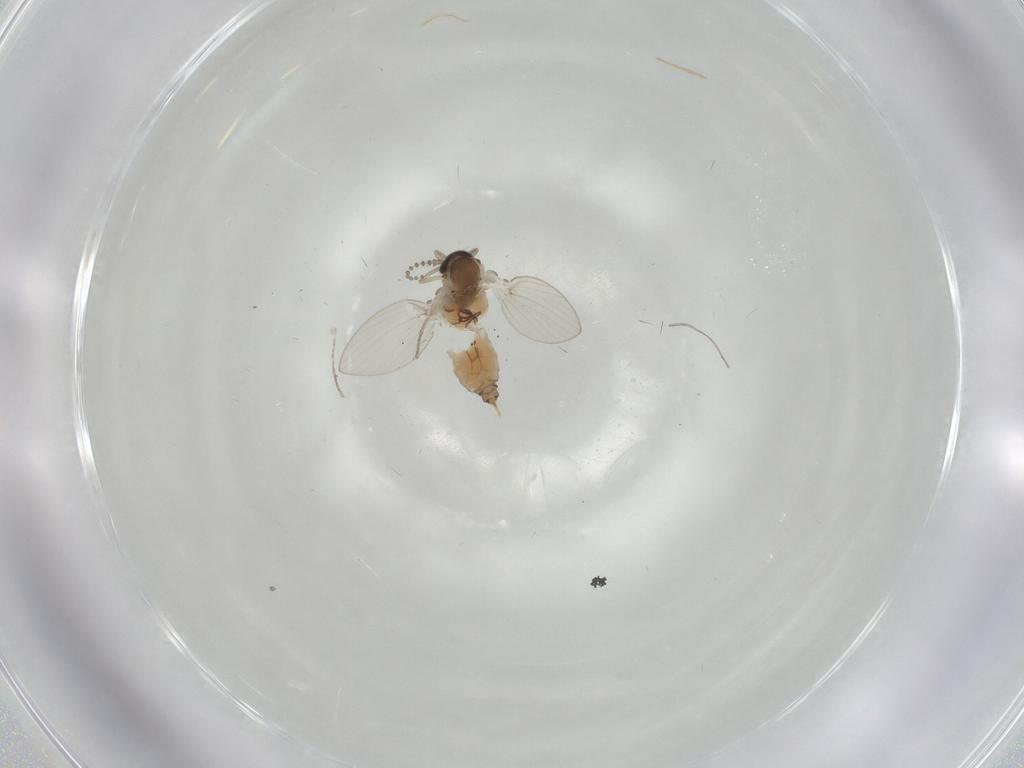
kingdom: Animalia
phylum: Arthropoda
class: Insecta
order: Diptera
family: Psychodidae
